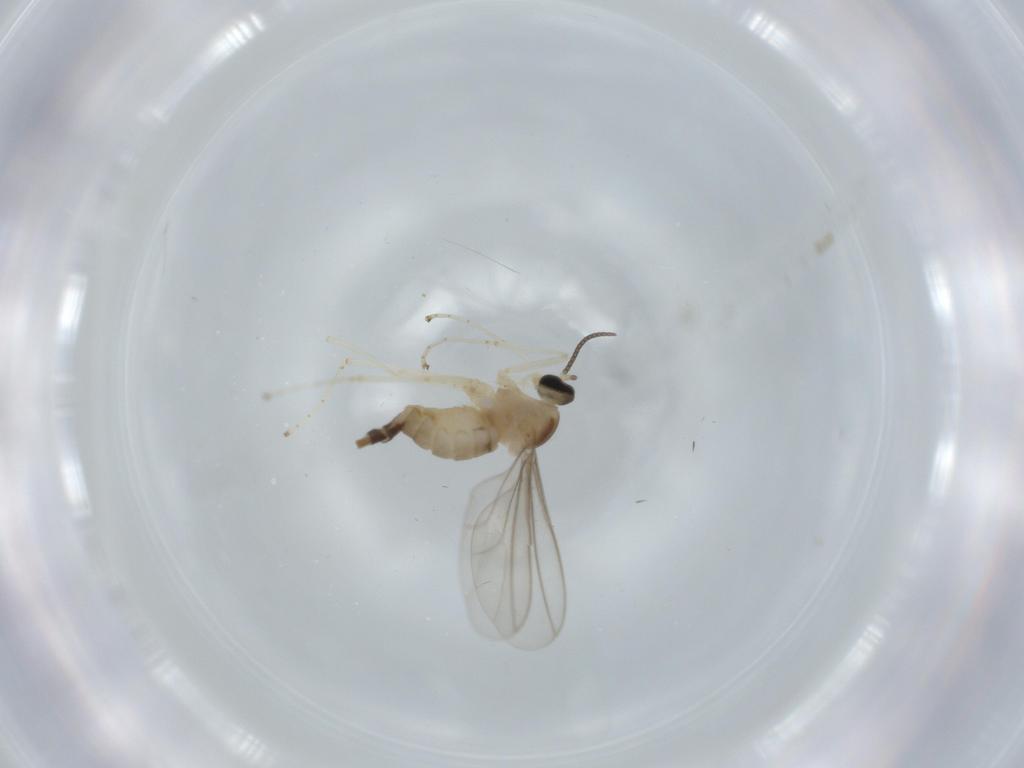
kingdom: Animalia
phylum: Arthropoda
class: Insecta
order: Diptera
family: Cecidomyiidae
